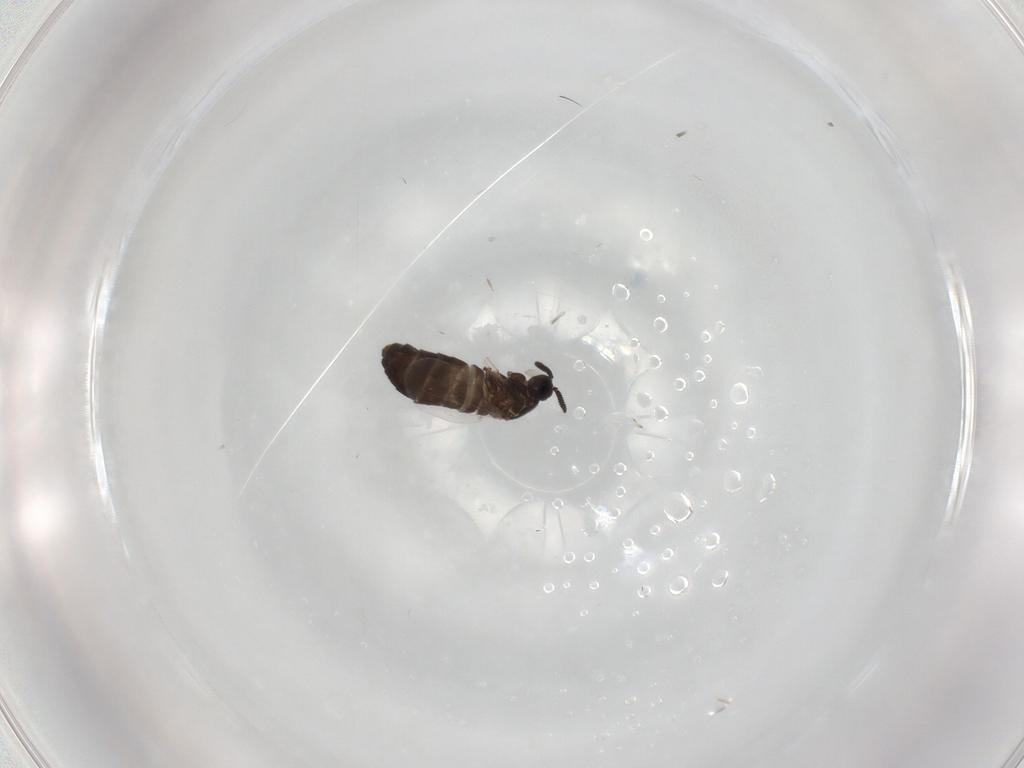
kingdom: Animalia
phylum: Arthropoda
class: Insecta
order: Diptera
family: Scatopsidae
